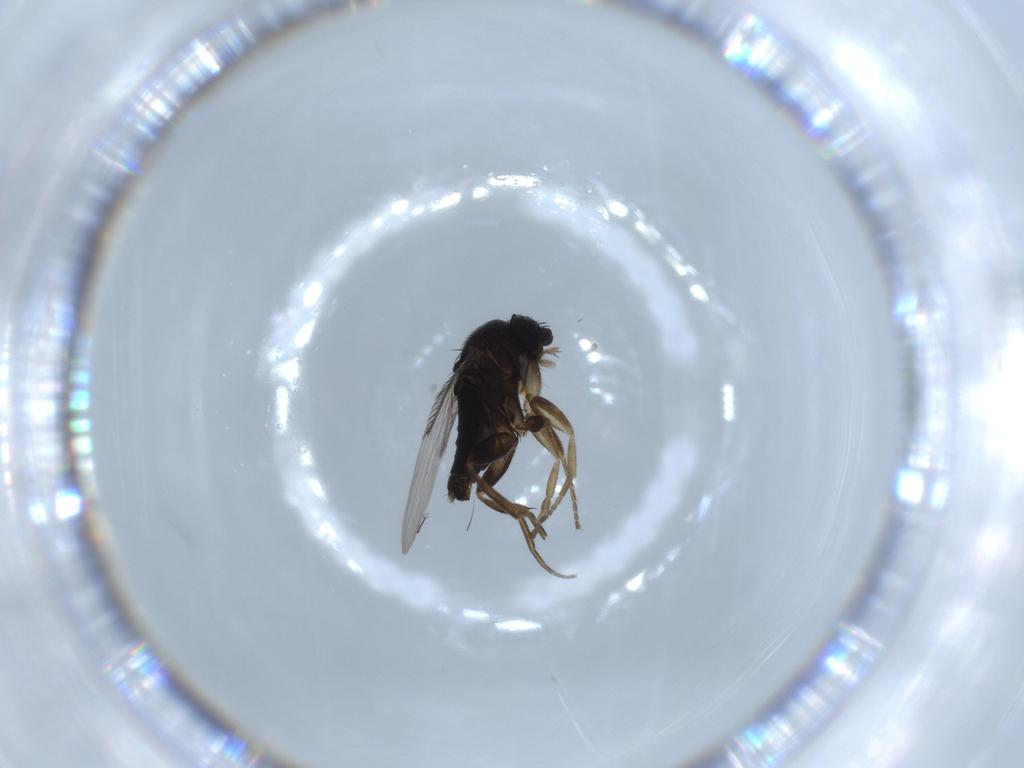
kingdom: Animalia
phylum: Arthropoda
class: Insecta
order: Diptera
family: Phoridae
